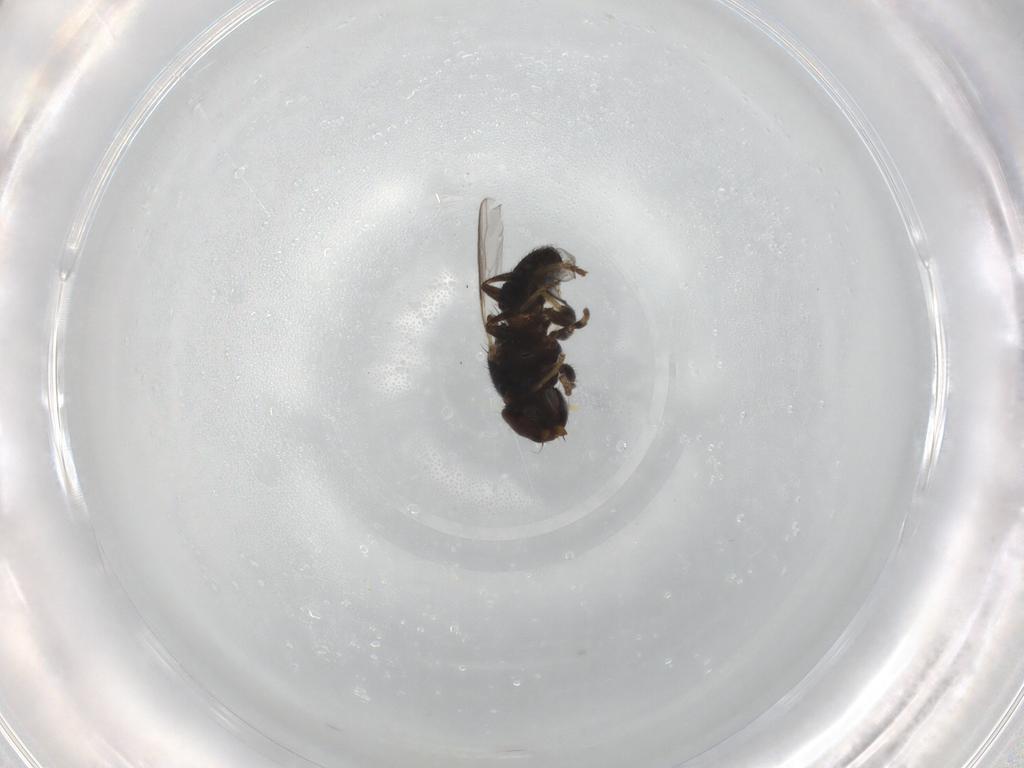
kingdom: Animalia
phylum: Arthropoda
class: Insecta
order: Diptera
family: Chloropidae
